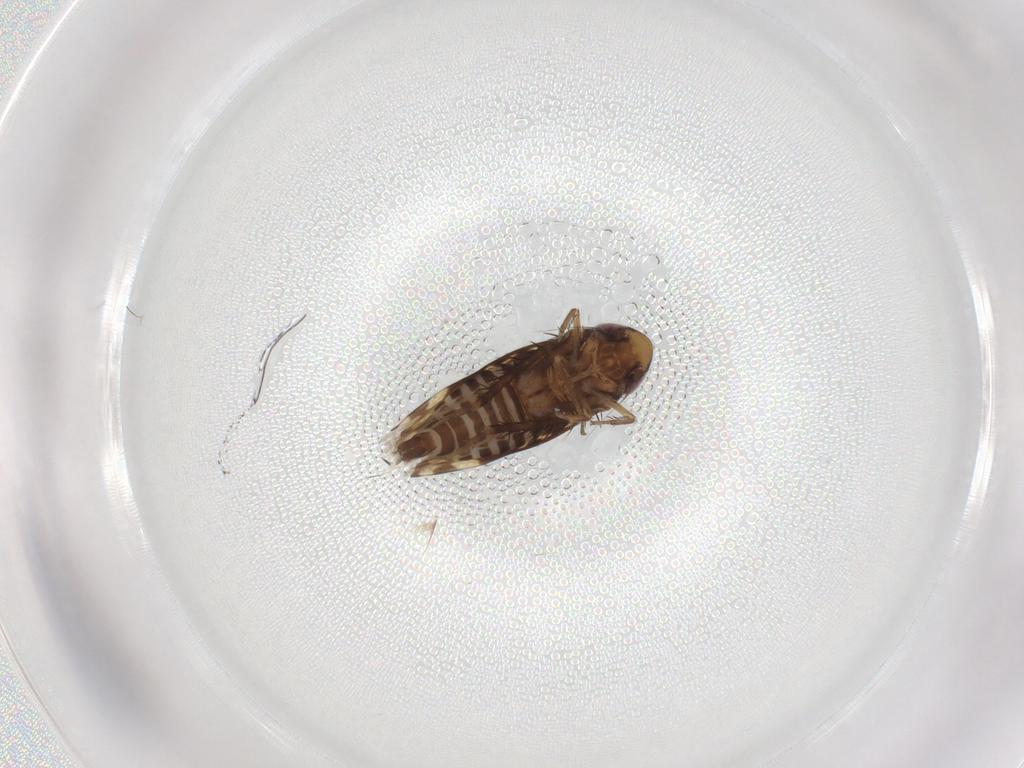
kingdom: Animalia
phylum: Arthropoda
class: Insecta
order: Hemiptera
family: Cicadellidae
